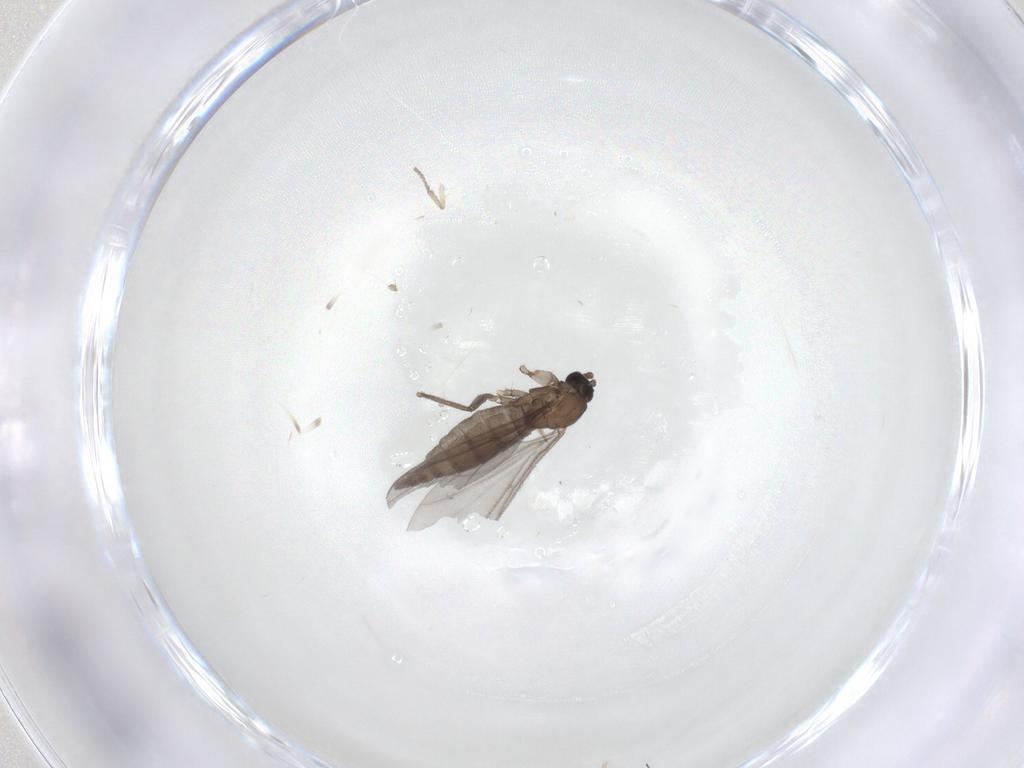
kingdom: Animalia
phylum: Arthropoda
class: Insecta
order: Diptera
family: Sciaridae
